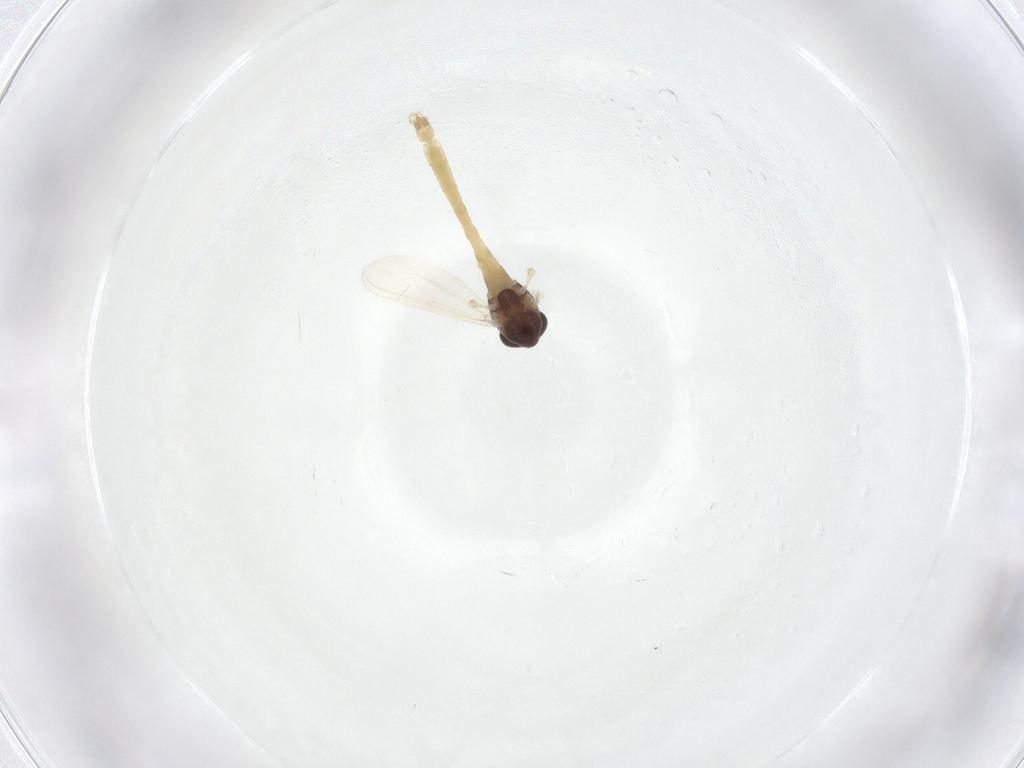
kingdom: Animalia
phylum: Arthropoda
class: Insecta
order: Diptera
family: Chironomidae
